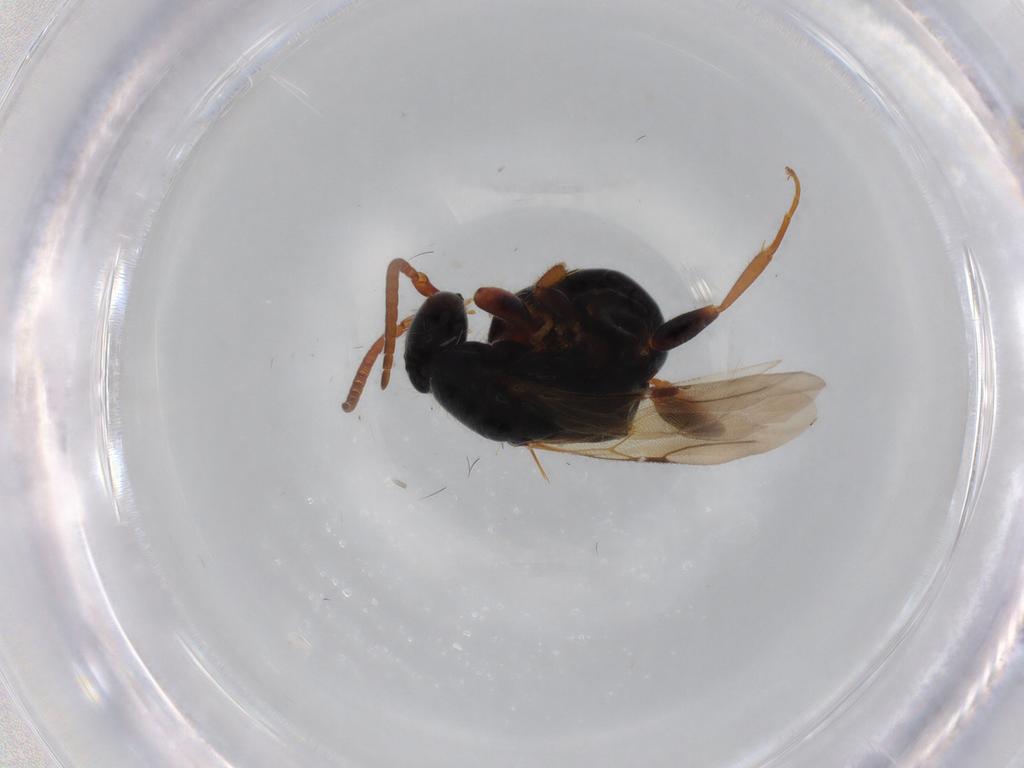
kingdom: Animalia
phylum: Arthropoda
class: Insecta
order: Hymenoptera
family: Bethylidae
